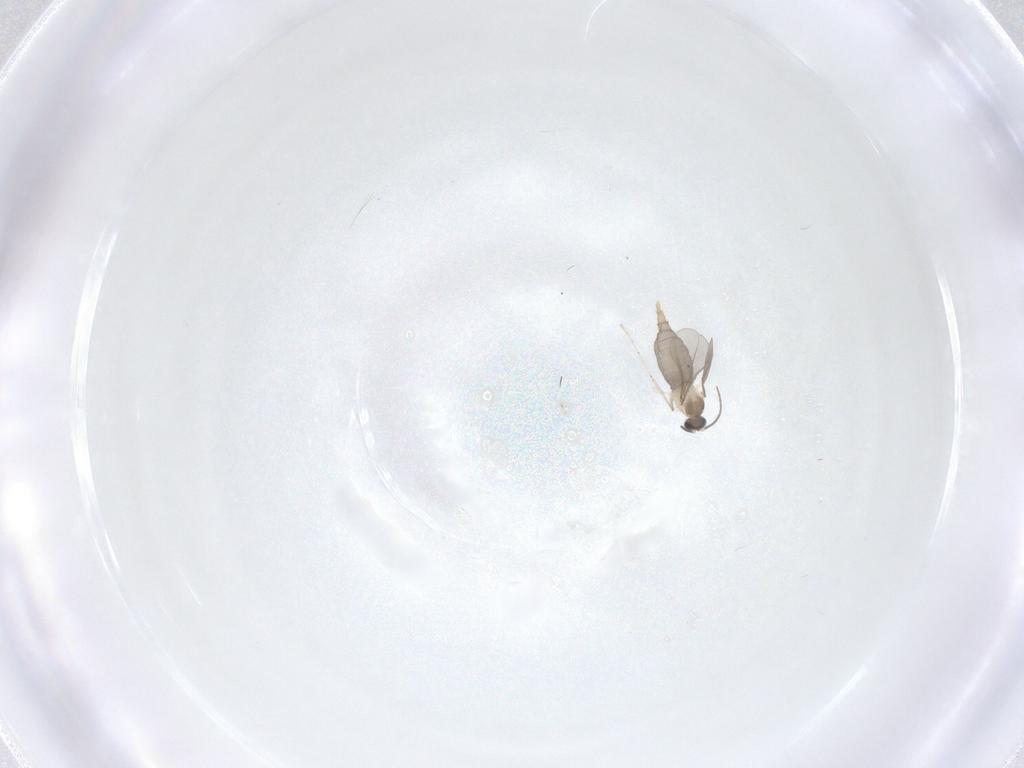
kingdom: Animalia
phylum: Arthropoda
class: Insecta
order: Diptera
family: Cecidomyiidae
